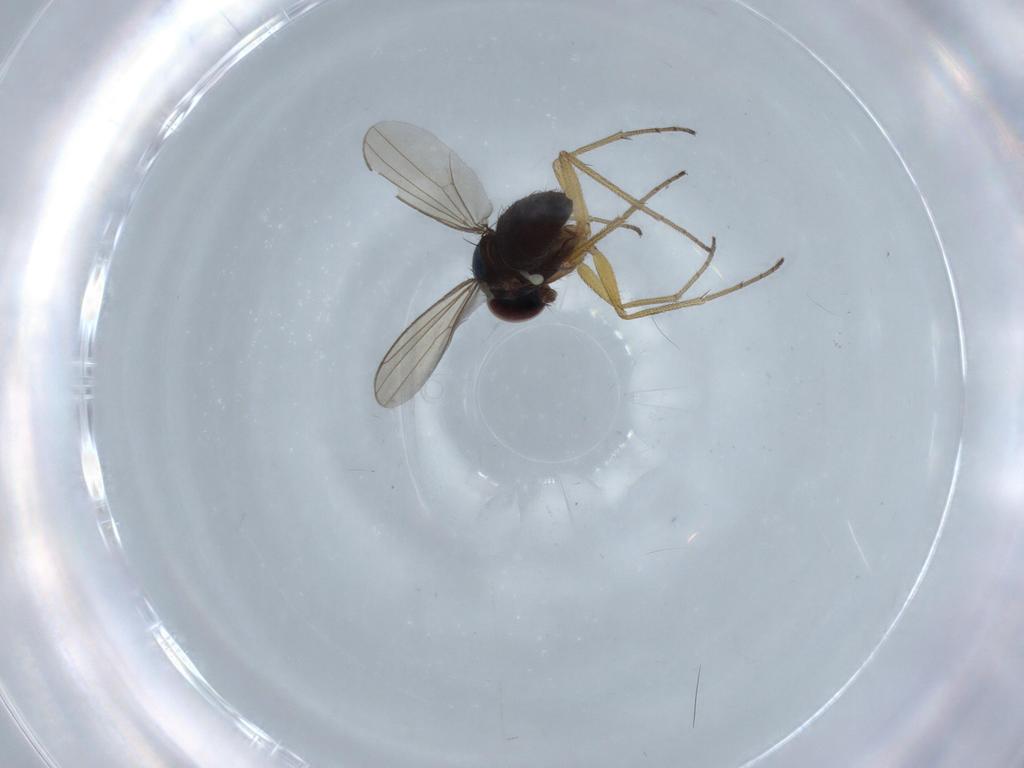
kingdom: Animalia
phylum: Arthropoda
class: Insecta
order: Diptera
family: Dolichopodidae
